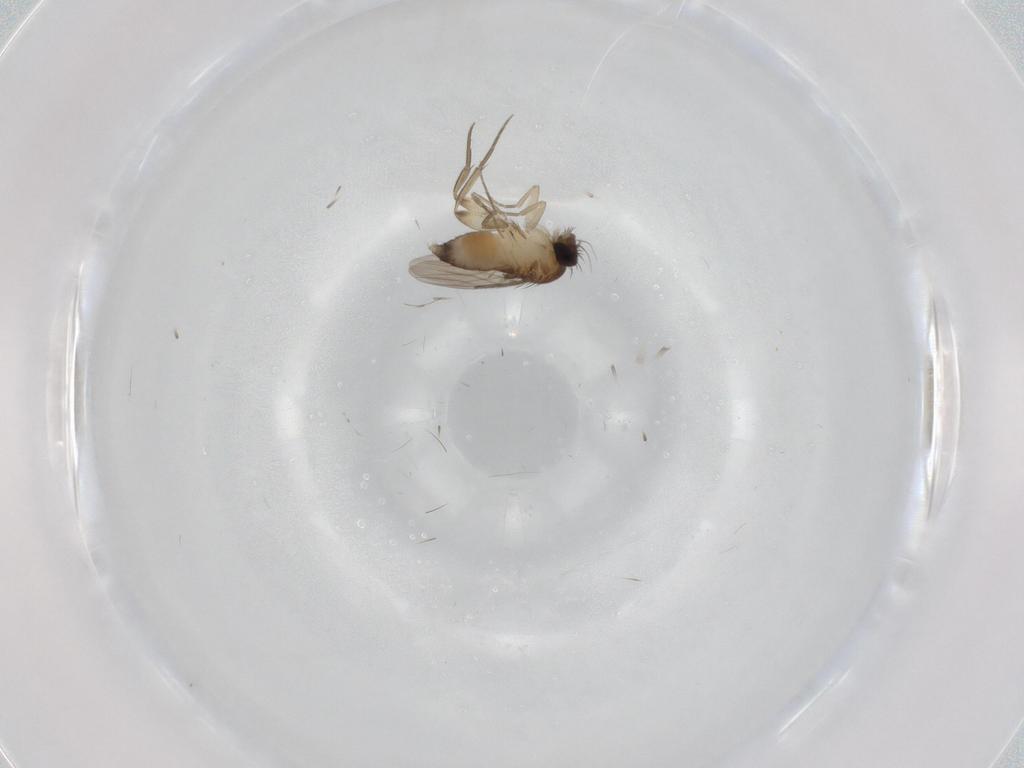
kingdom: Animalia
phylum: Arthropoda
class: Insecta
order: Diptera
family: Phoridae
